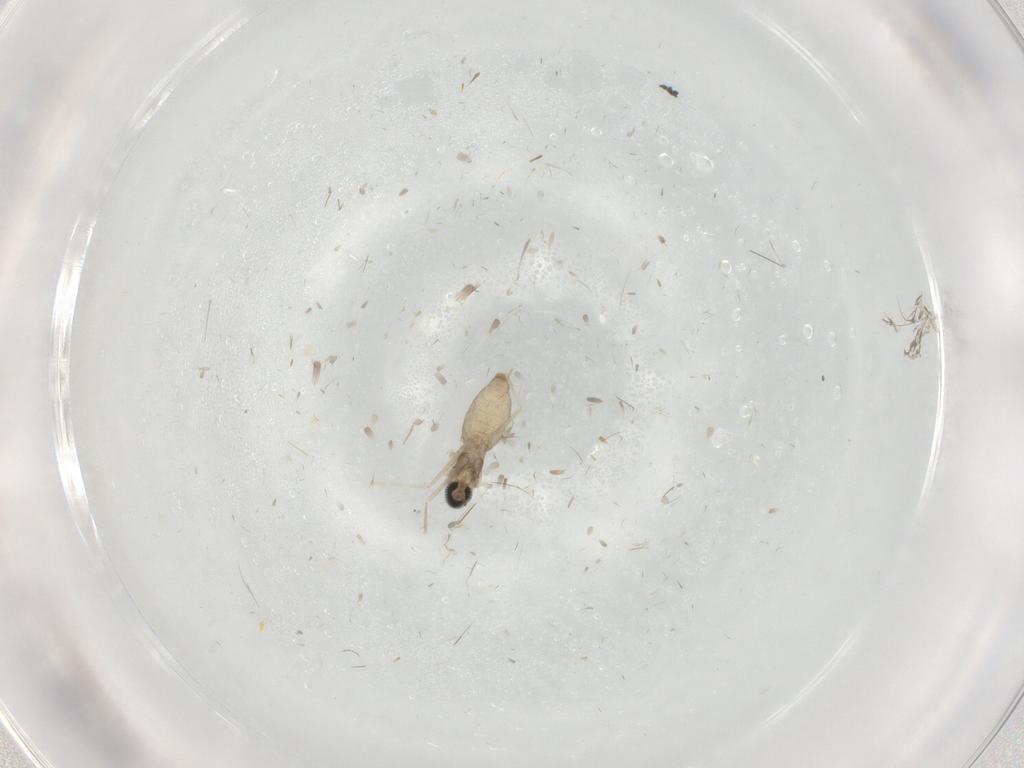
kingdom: Animalia
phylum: Arthropoda
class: Insecta
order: Diptera
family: Cecidomyiidae
